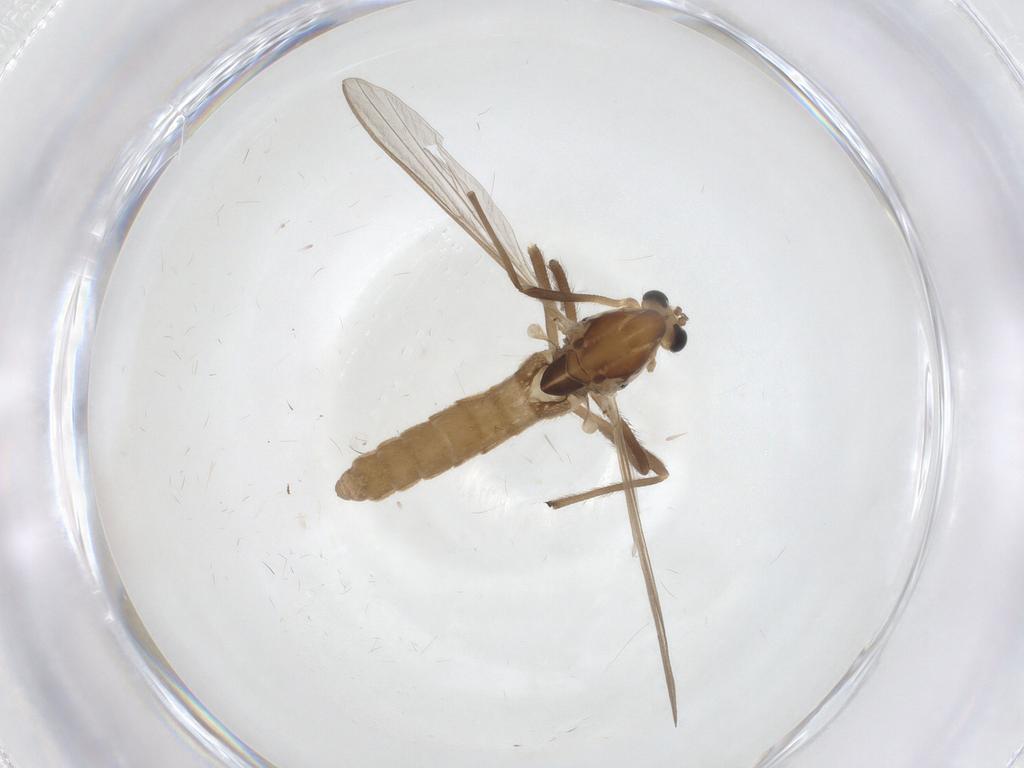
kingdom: Animalia
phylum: Arthropoda
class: Insecta
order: Diptera
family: Chironomidae
